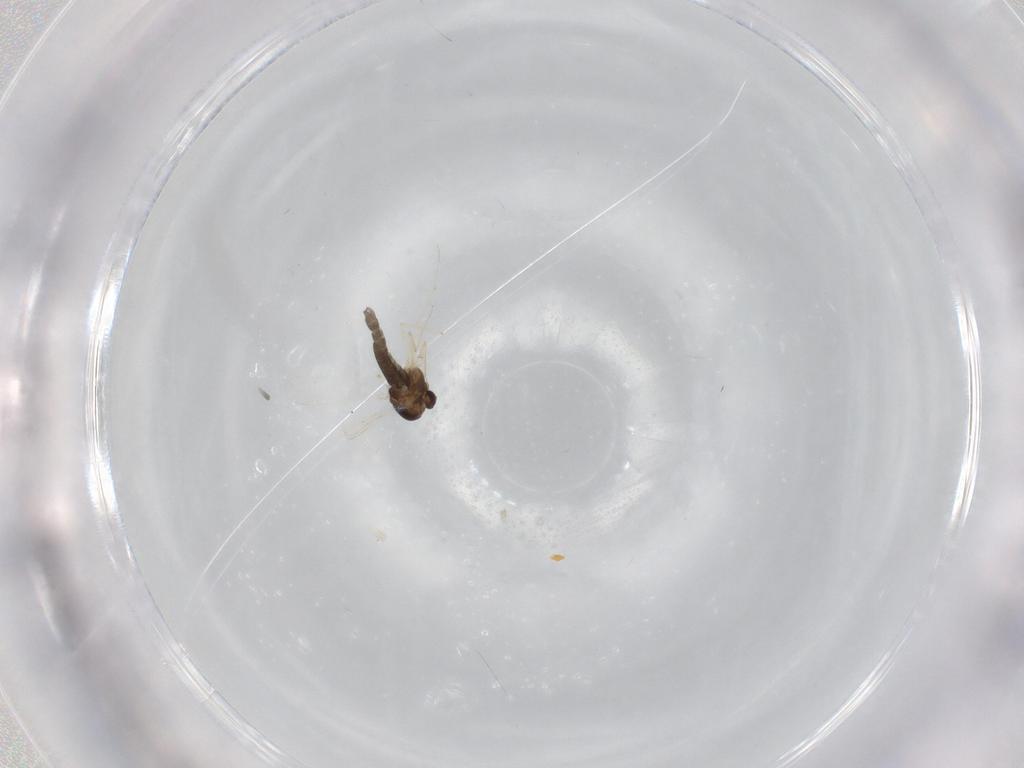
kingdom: Animalia
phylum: Arthropoda
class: Insecta
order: Diptera
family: Chironomidae
